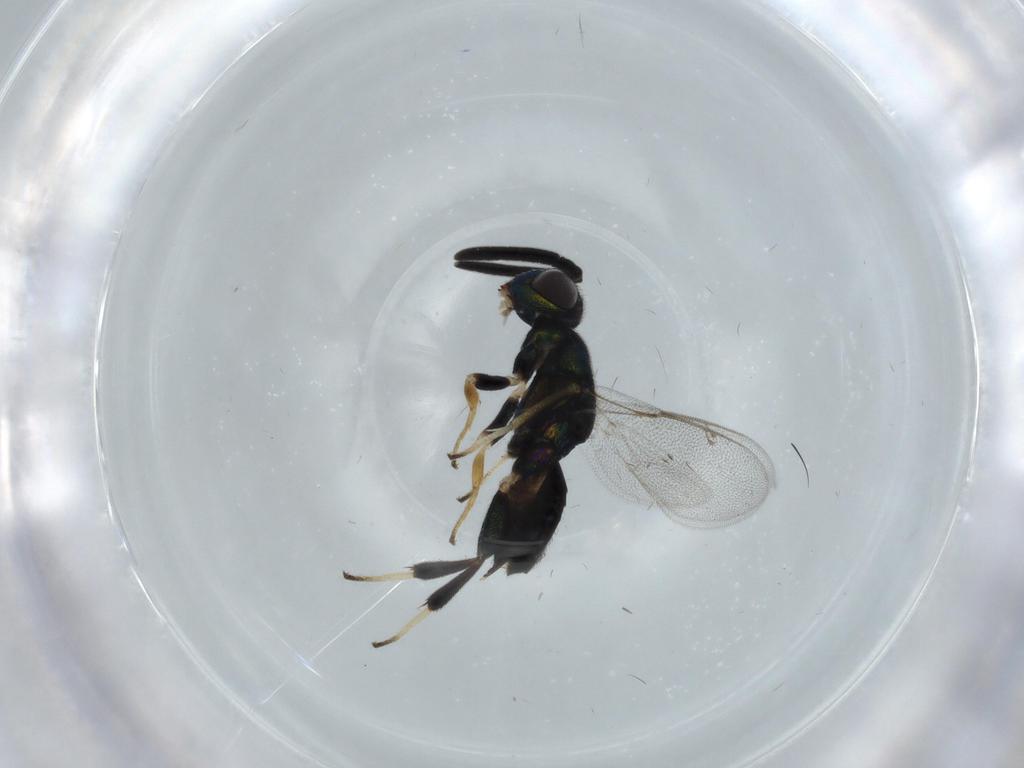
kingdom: Animalia
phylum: Arthropoda
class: Insecta
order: Hymenoptera
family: Eupelmidae
